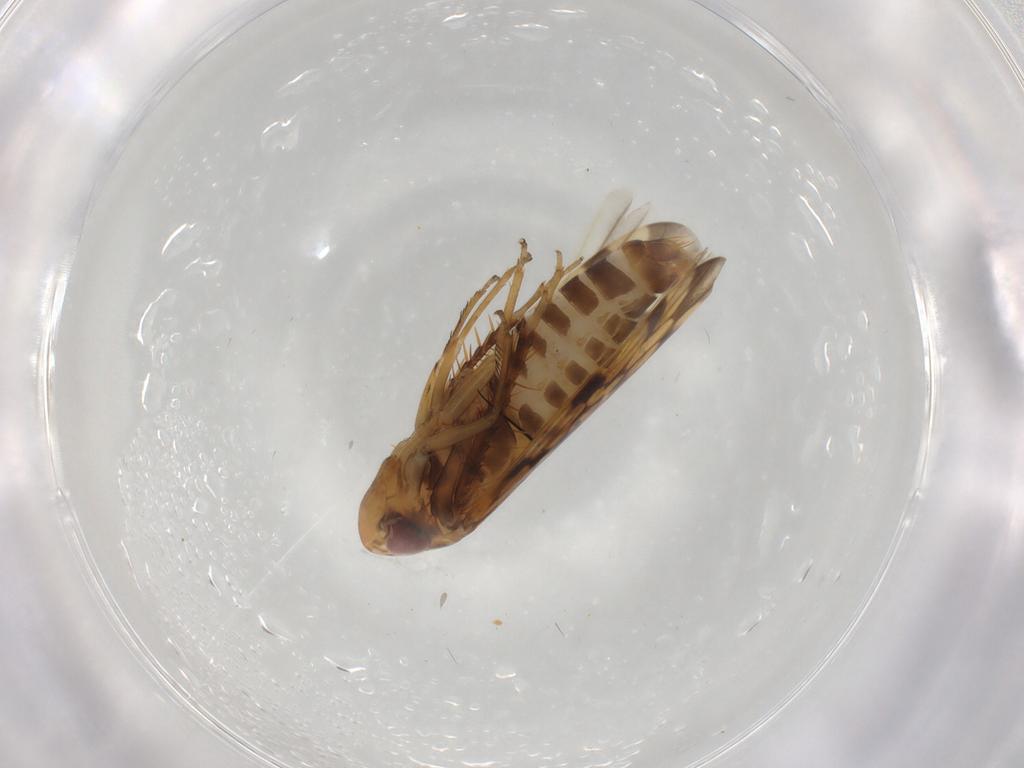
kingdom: Animalia
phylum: Arthropoda
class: Insecta
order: Hemiptera
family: Cicadellidae
